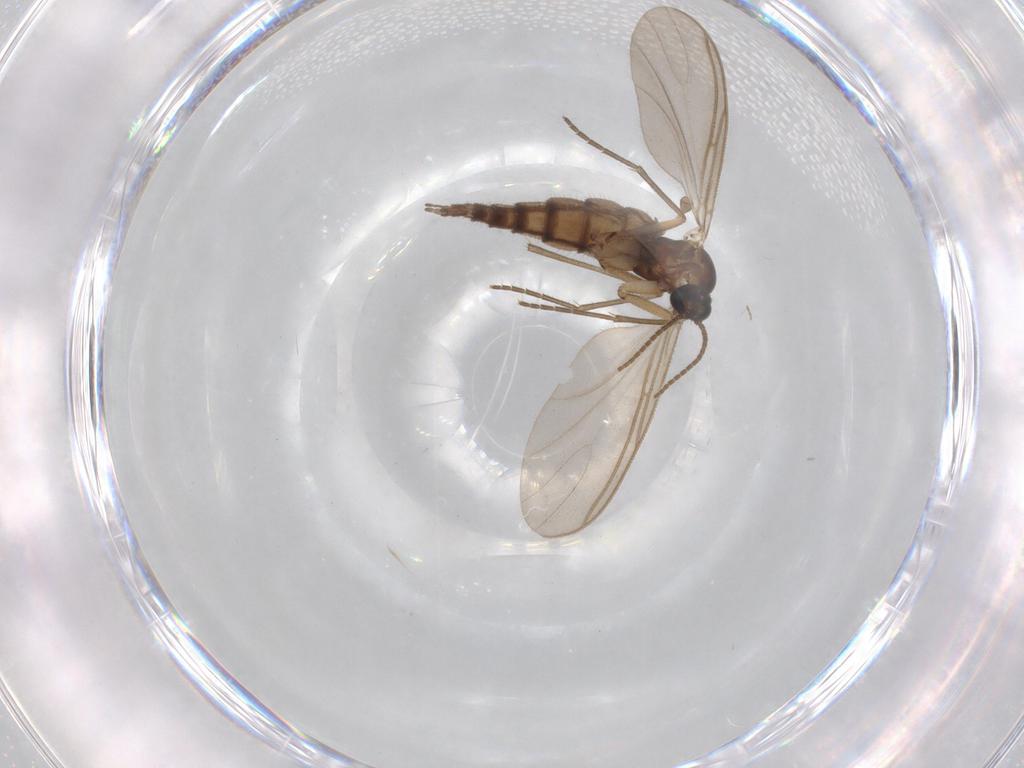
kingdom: Animalia
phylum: Arthropoda
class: Insecta
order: Diptera
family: Sciaridae
